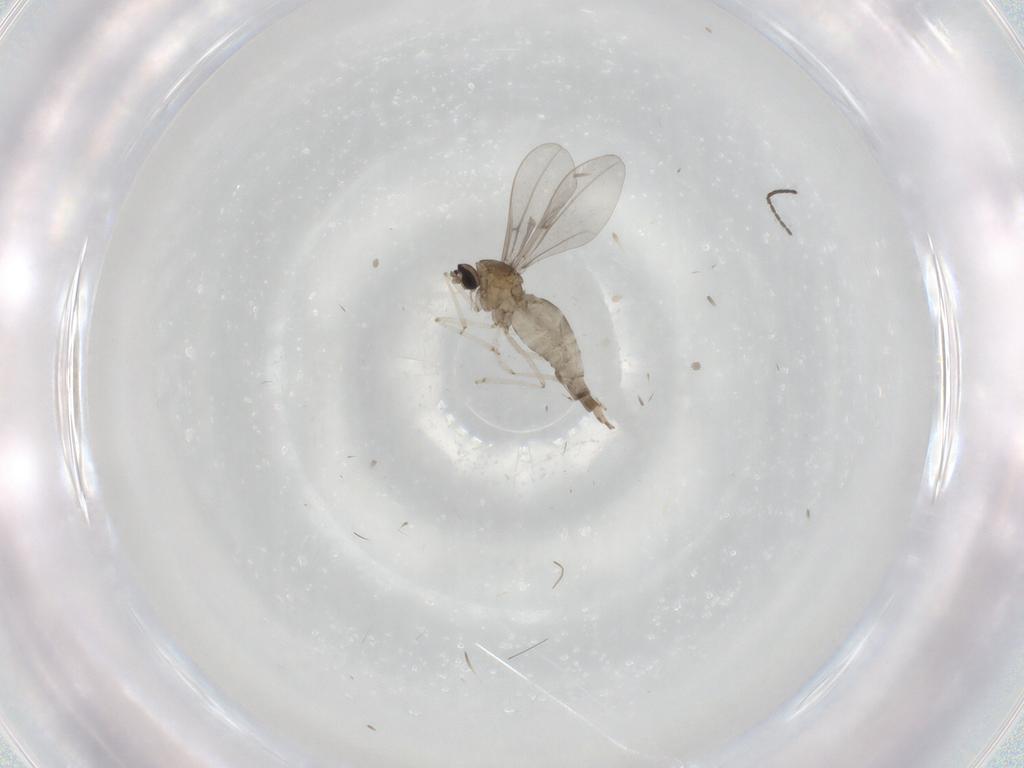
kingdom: Animalia
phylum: Arthropoda
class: Insecta
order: Diptera
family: Cecidomyiidae
